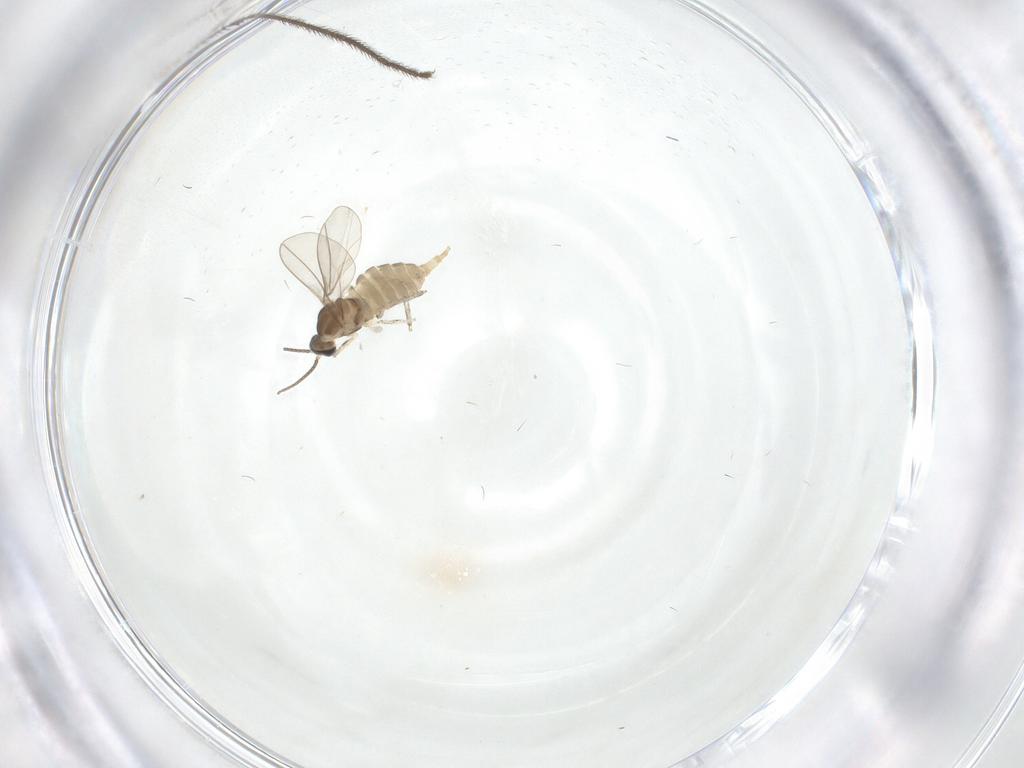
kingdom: Animalia
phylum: Arthropoda
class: Insecta
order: Diptera
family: Cecidomyiidae
